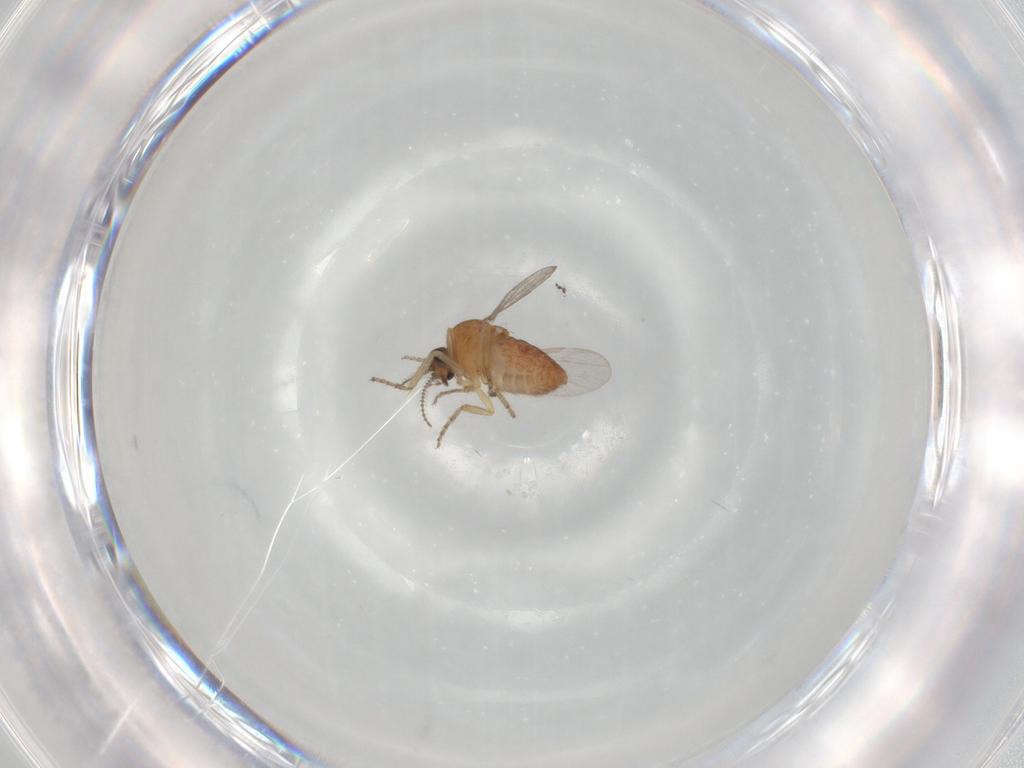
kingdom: Animalia
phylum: Arthropoda
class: Insecta
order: Diptera
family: Ceratopogonidae
